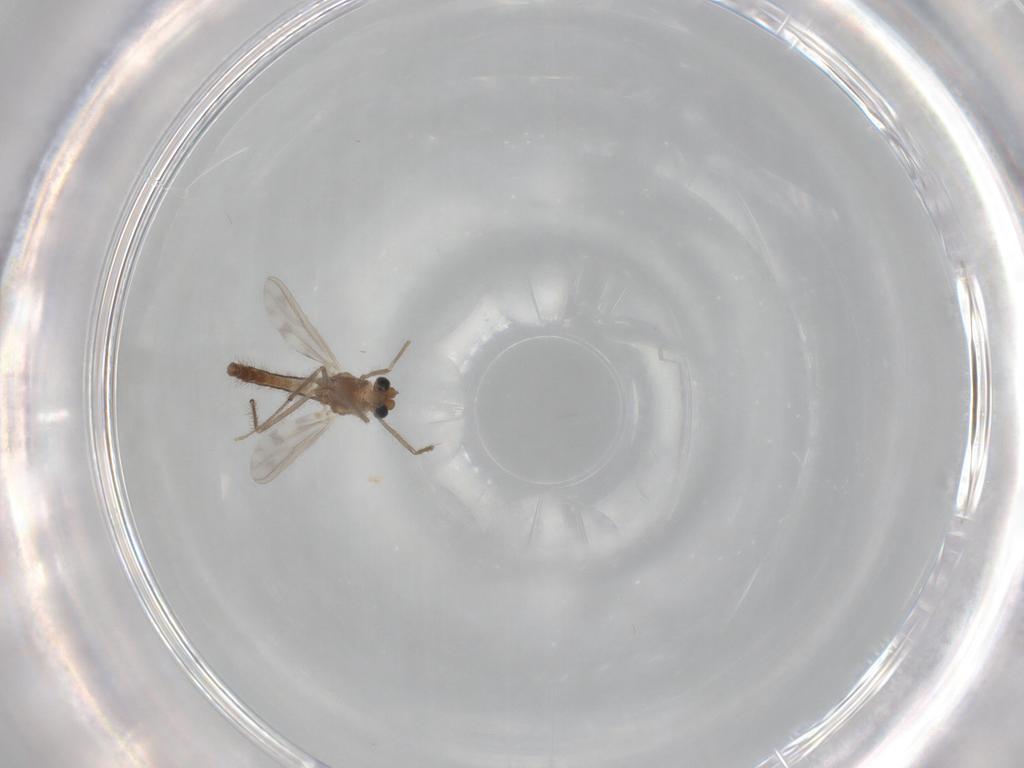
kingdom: Animalia
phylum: Arthropoda
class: Insecta
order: Diptera
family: Chironomidae
